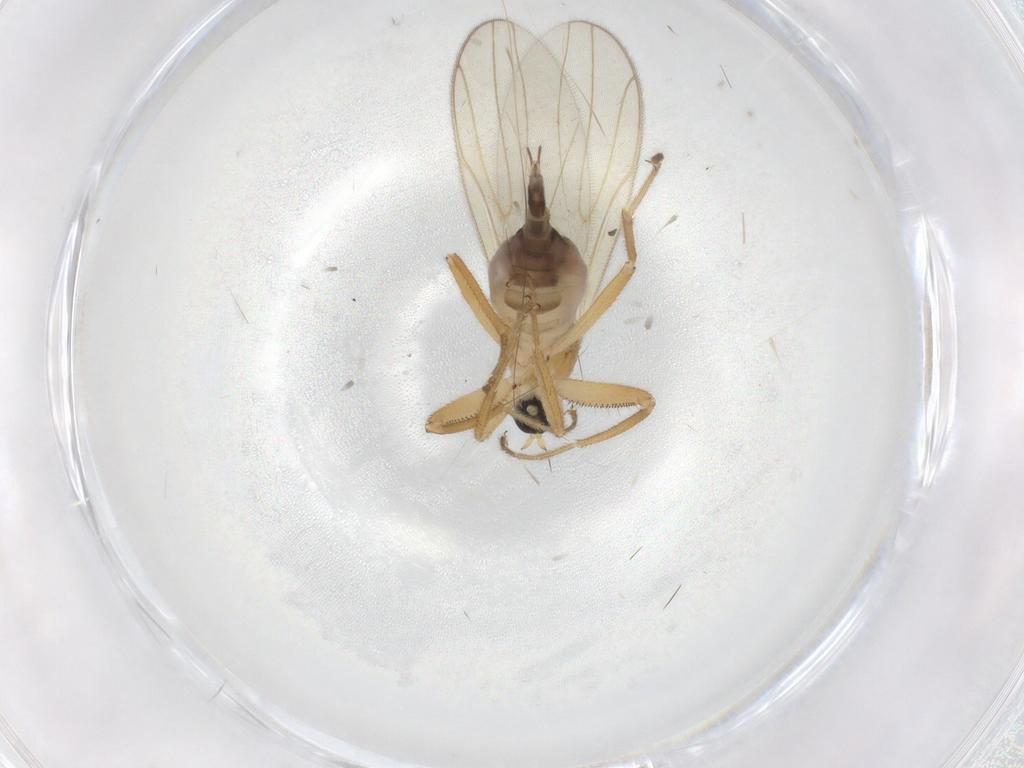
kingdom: Animalia
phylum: Arthropoda
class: Insecta
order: Diptera
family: Hybotidae
